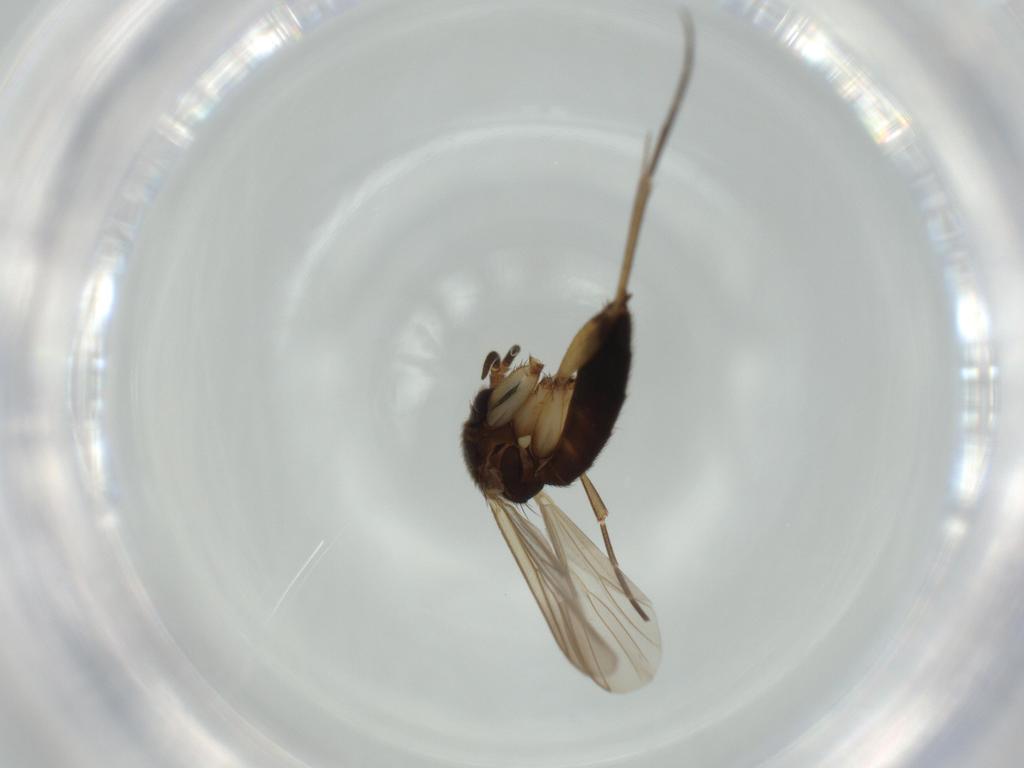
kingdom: Animalia
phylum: Arthropoda
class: Insecta
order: Diptera
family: Mycetophilidae
